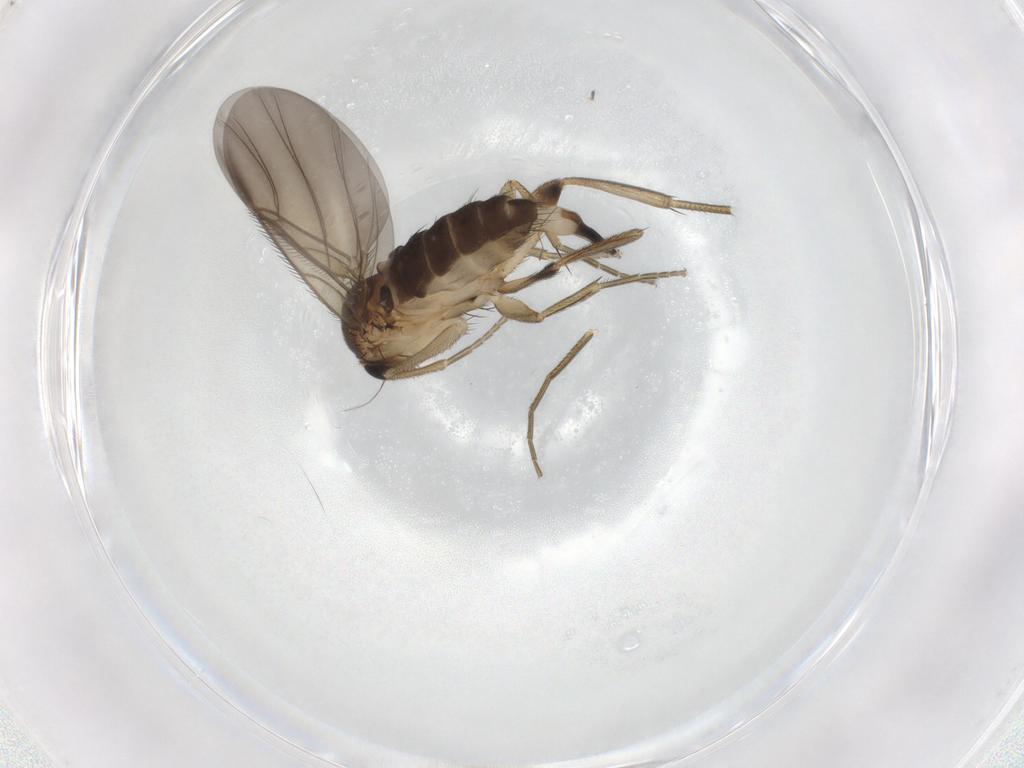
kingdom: Animalia
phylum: Arthropoda
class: Insecta
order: Diptera
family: Phoridae
